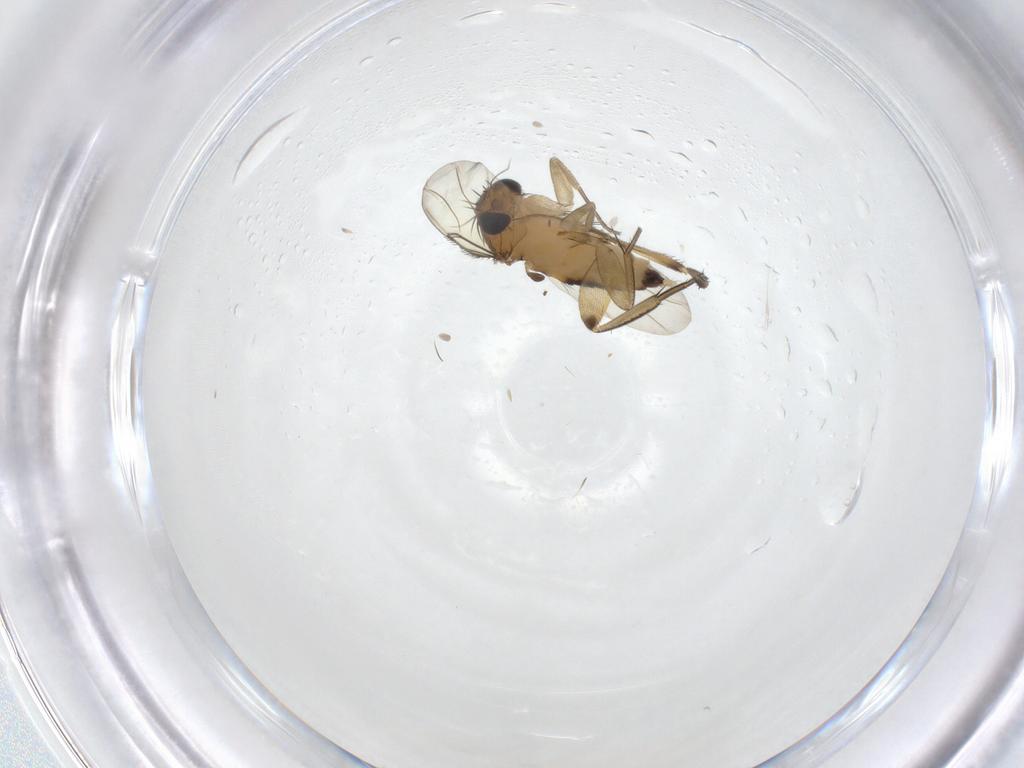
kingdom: Animalia
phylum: Arthropoda
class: Insecta
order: Diptera
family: Phoridae
